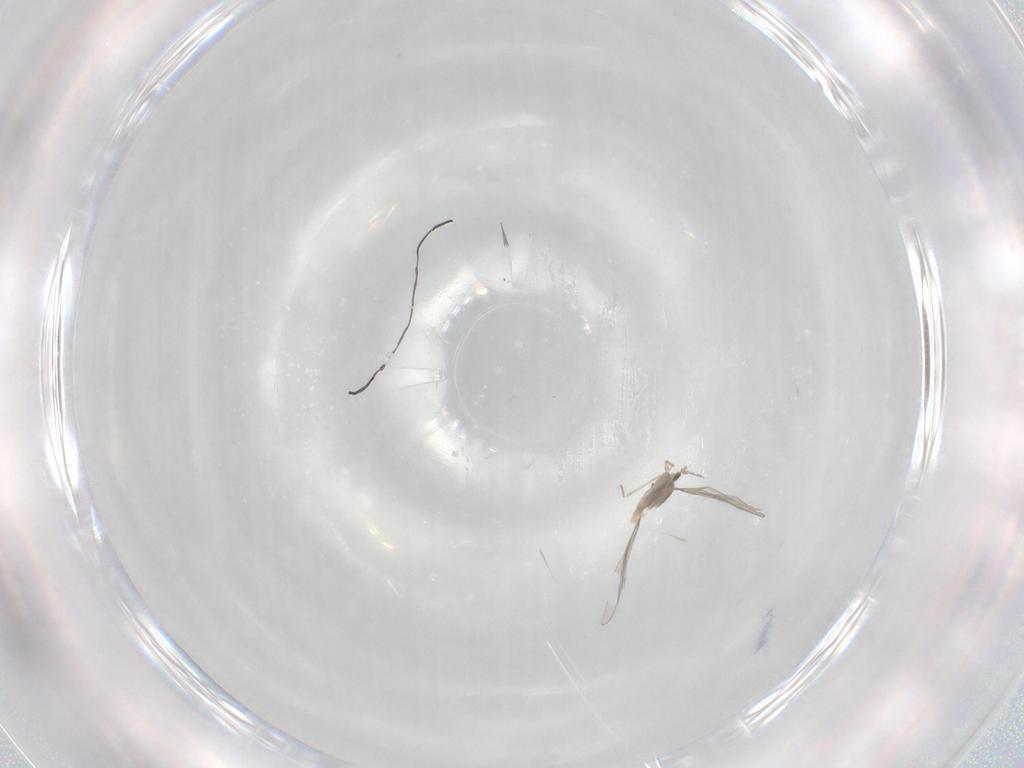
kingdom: Animalia
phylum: Arthropoda
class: Insecta
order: Diptera
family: Cecidomyiidae
